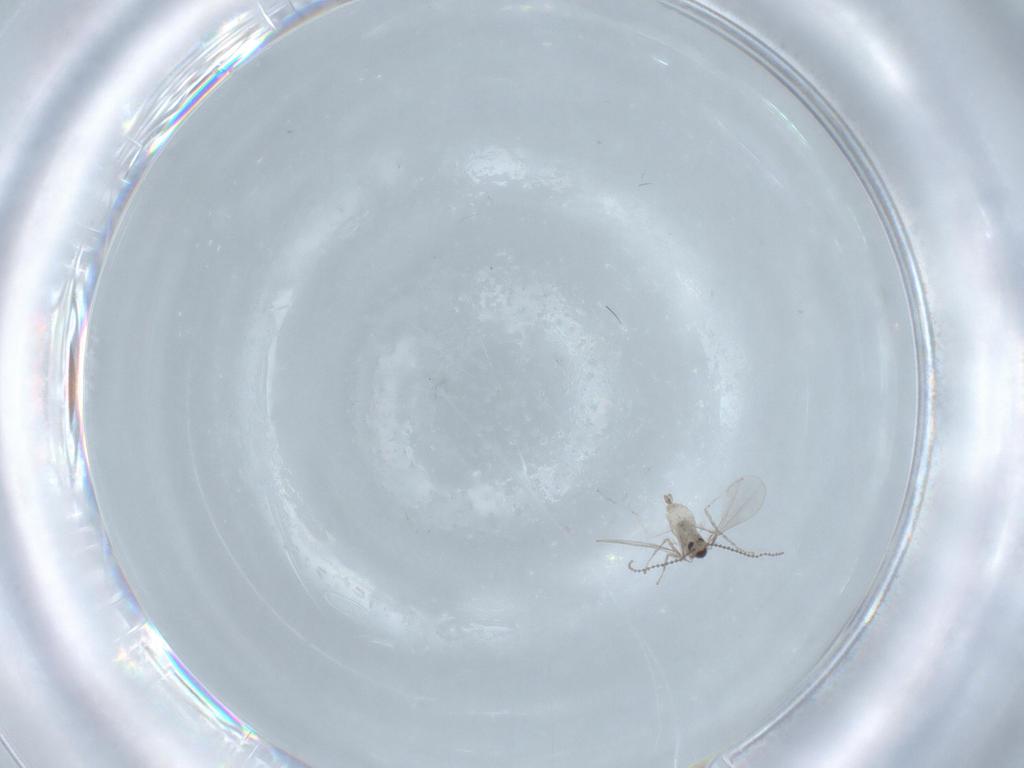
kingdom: Animalia
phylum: Arthropoda
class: Insecta
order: Diptera
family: Cecidomyiidae
